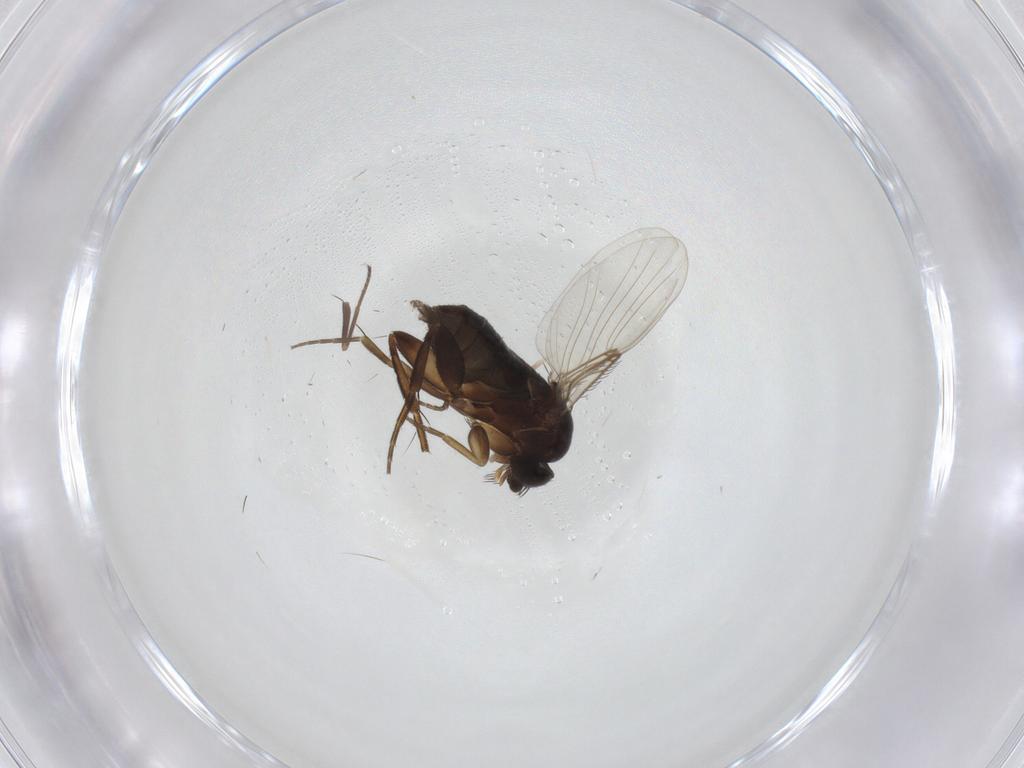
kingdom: Animalia
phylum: Arthropoda
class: Insecta
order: Diptera
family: Phoridae
